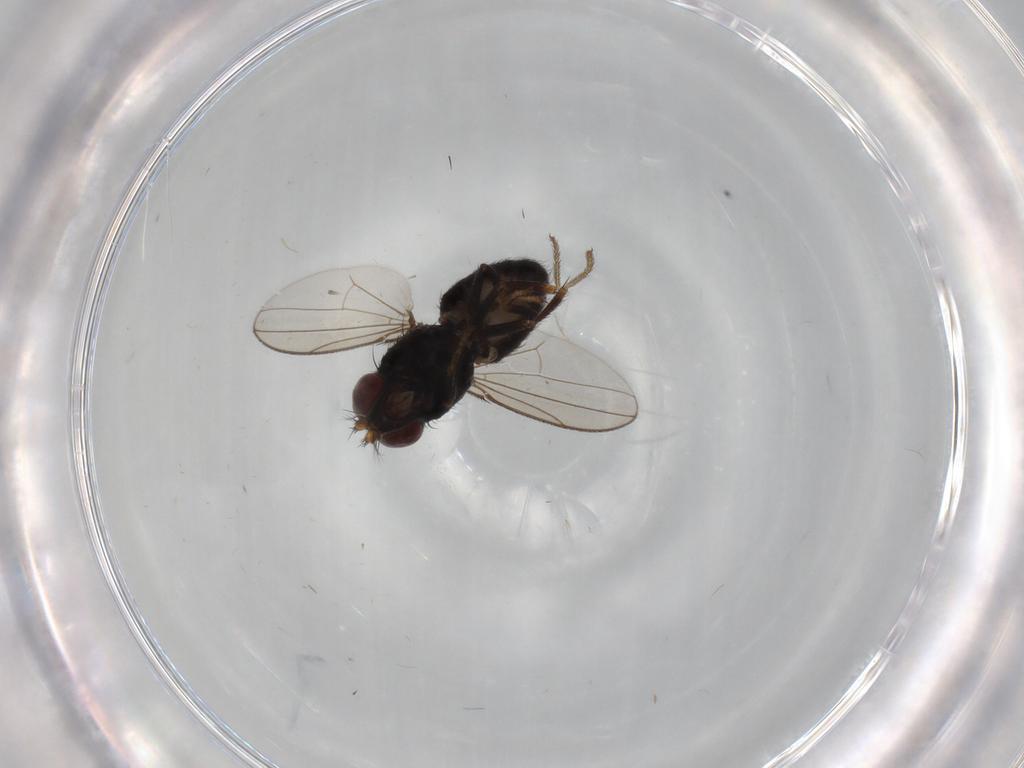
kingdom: Animalia
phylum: Arthropoda
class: Insecta
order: Diptera
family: Ephydridae
